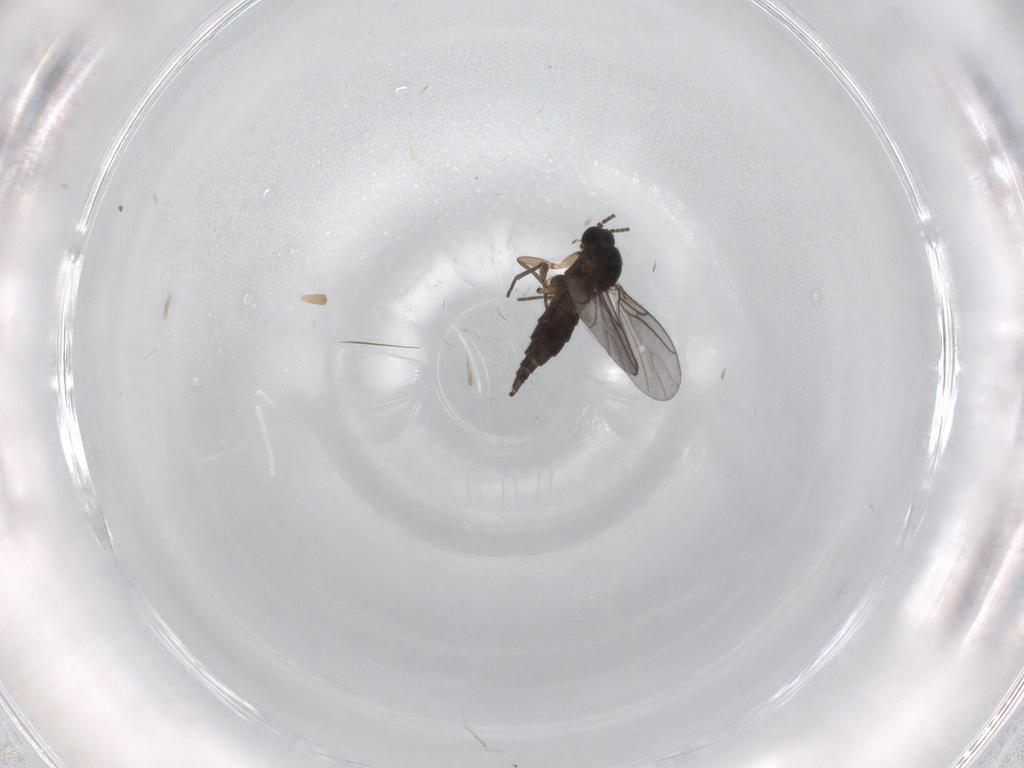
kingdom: Animalia
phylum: Arthropoda
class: Insecta
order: Diptera
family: Sciaridae
